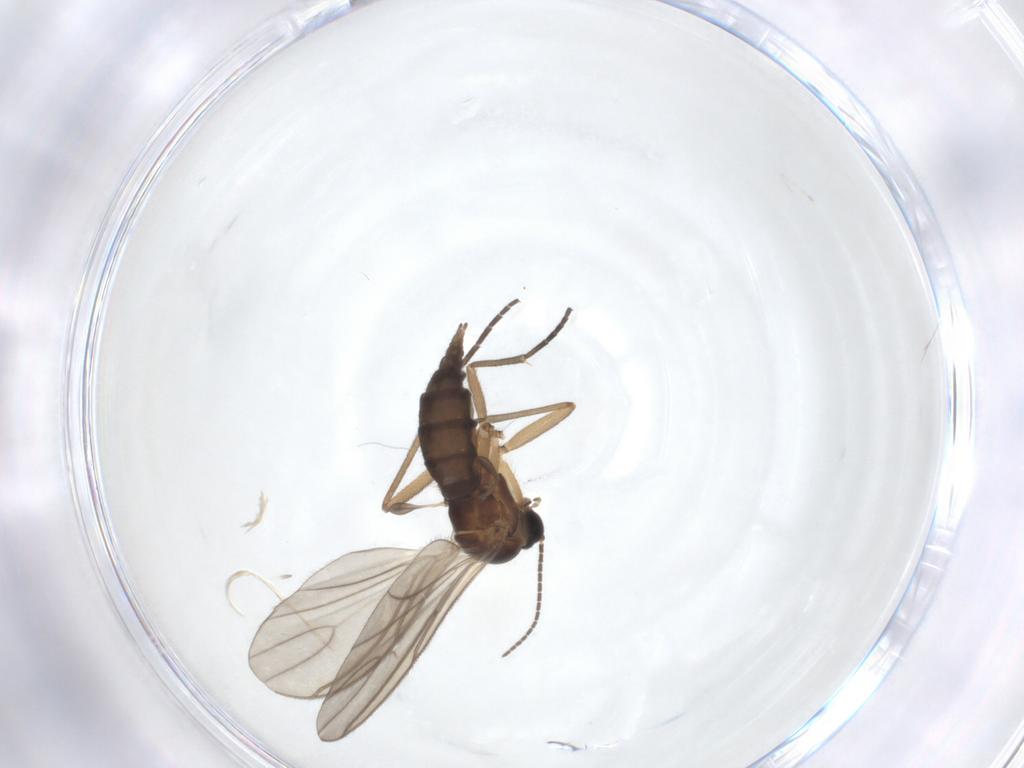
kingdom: Animalia
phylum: Arthropoda
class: Insecta
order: Diptera
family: Sciaridae
